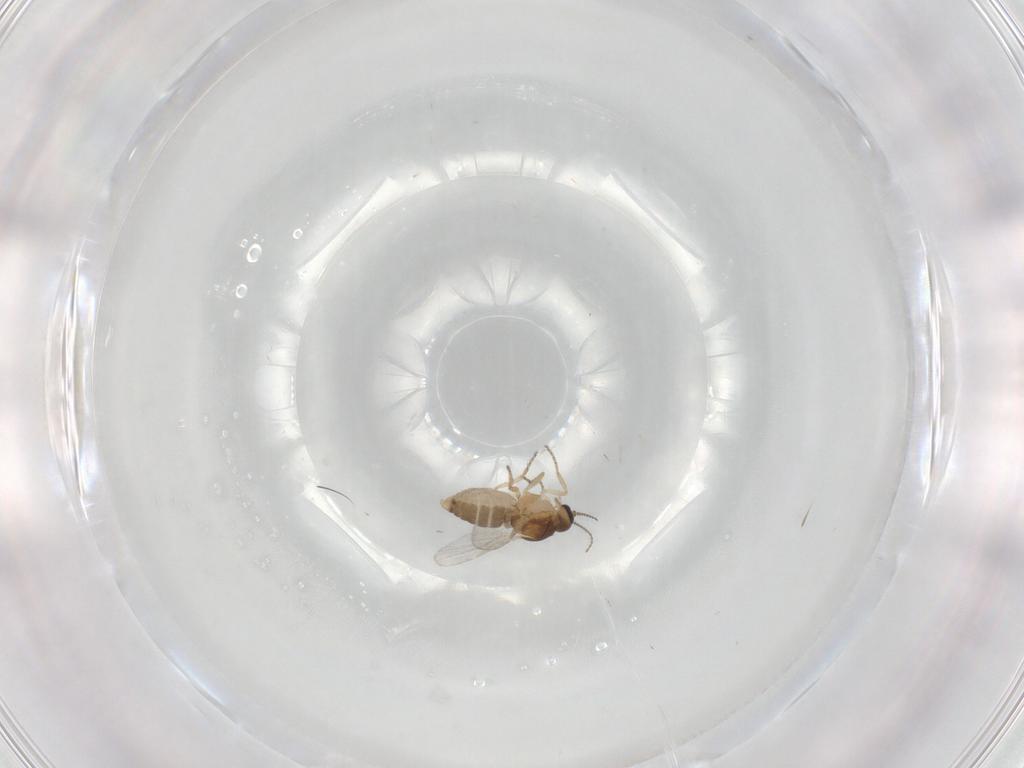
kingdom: Animalia
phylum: Arthropoda
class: Insecta
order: Diptera
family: Ceratopogonidae
